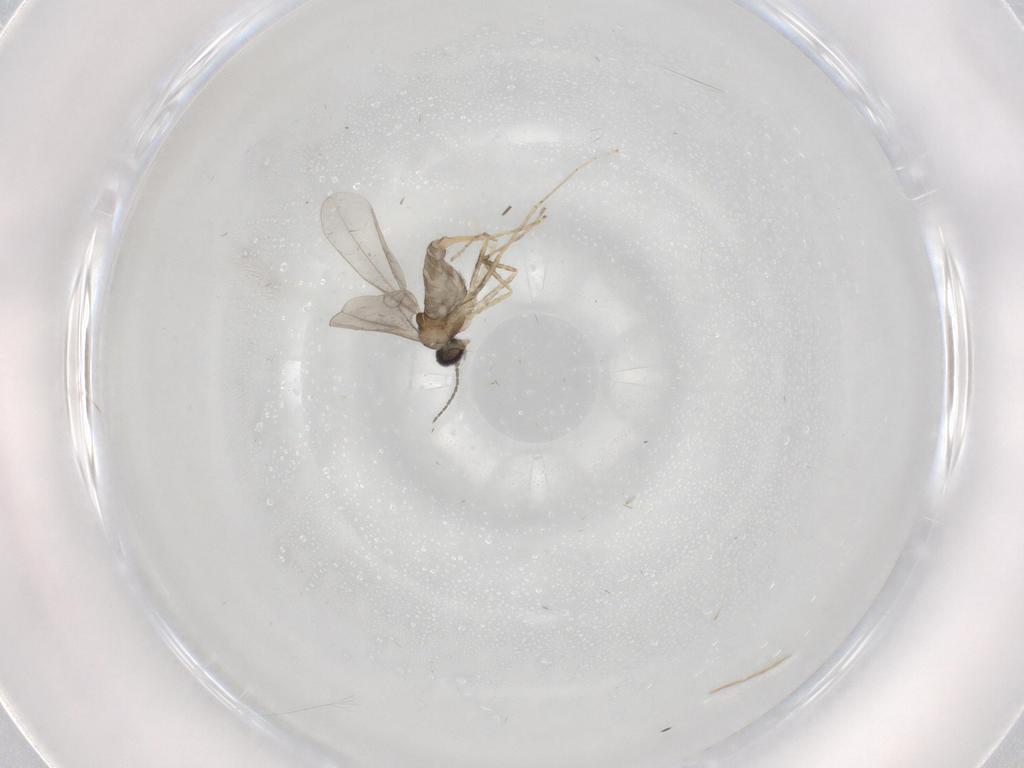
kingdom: Animalia
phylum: Arthropoda
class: Insecta
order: Diptera
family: Cecidomyiidae
